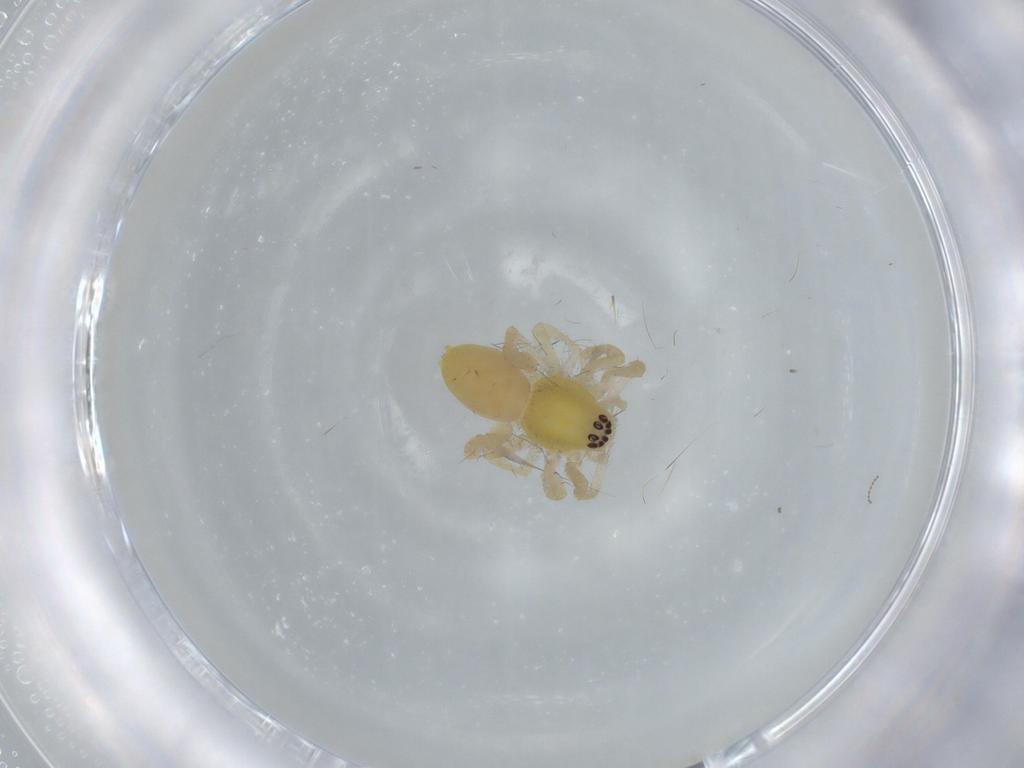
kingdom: Animalia
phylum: Arthropoda
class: Arachnida
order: Araneae
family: Anyphaenidae
